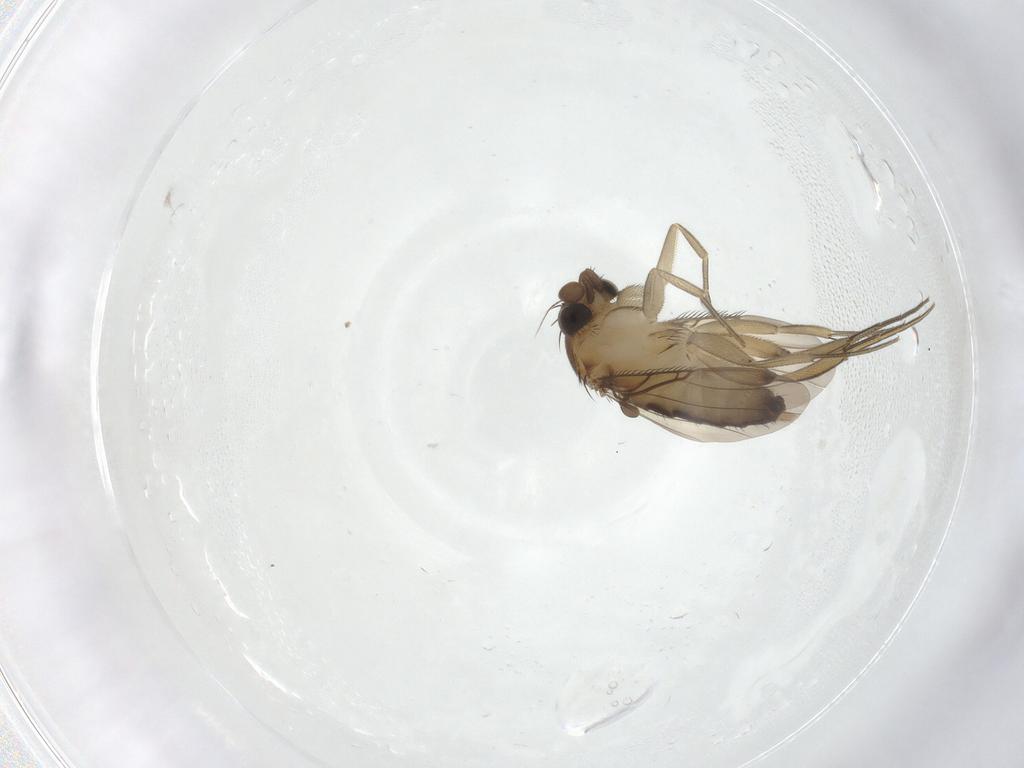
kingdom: Animalia
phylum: Arthropoda
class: Insecta
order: Diptera
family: Phoridae
